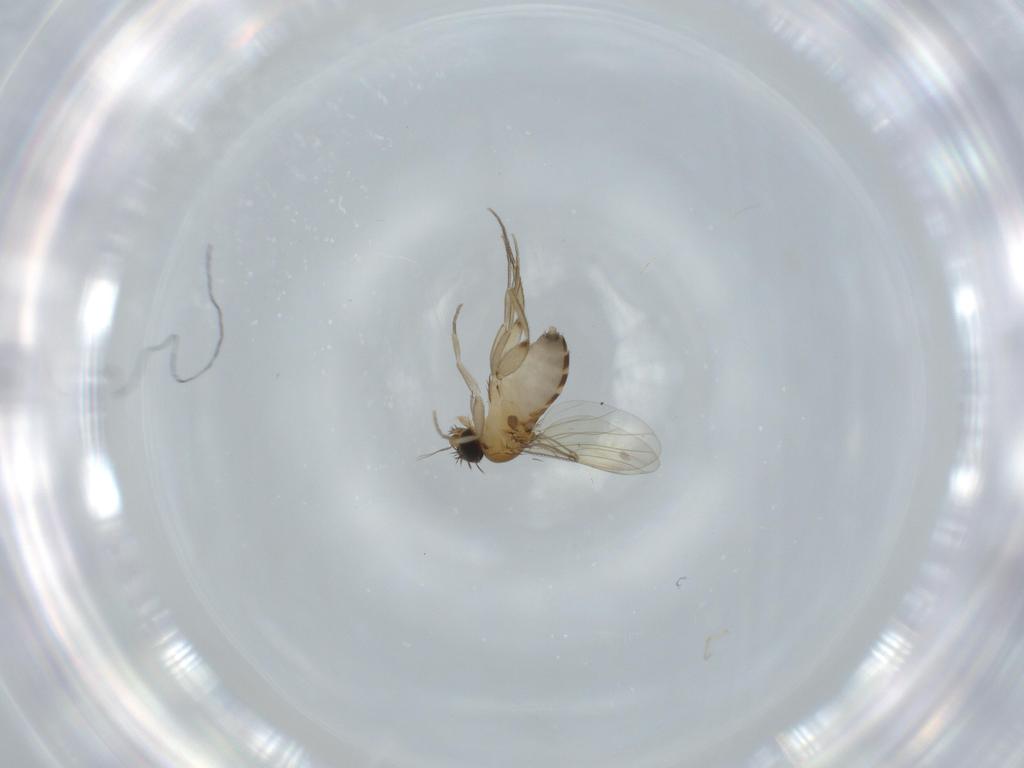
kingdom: Animalia
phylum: Arthropoda
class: Insecta
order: Diptera
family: Phoridae
